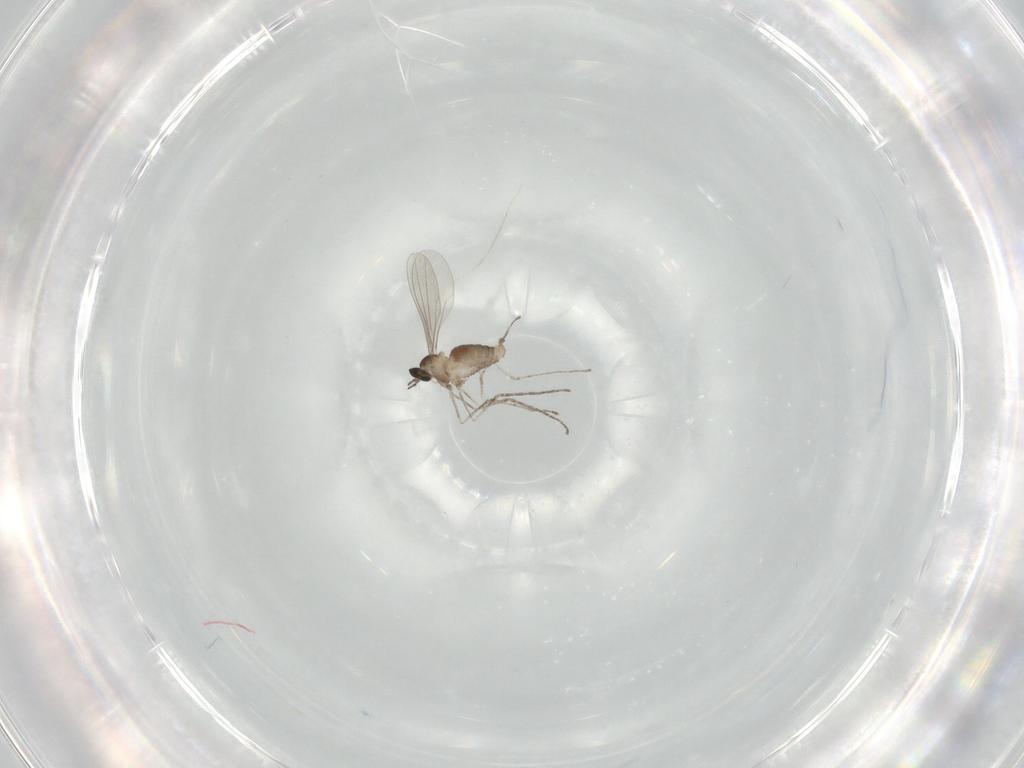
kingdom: Animalia
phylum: Arthropoda
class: Insecta
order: Diptera
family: Cecidomyiidae
